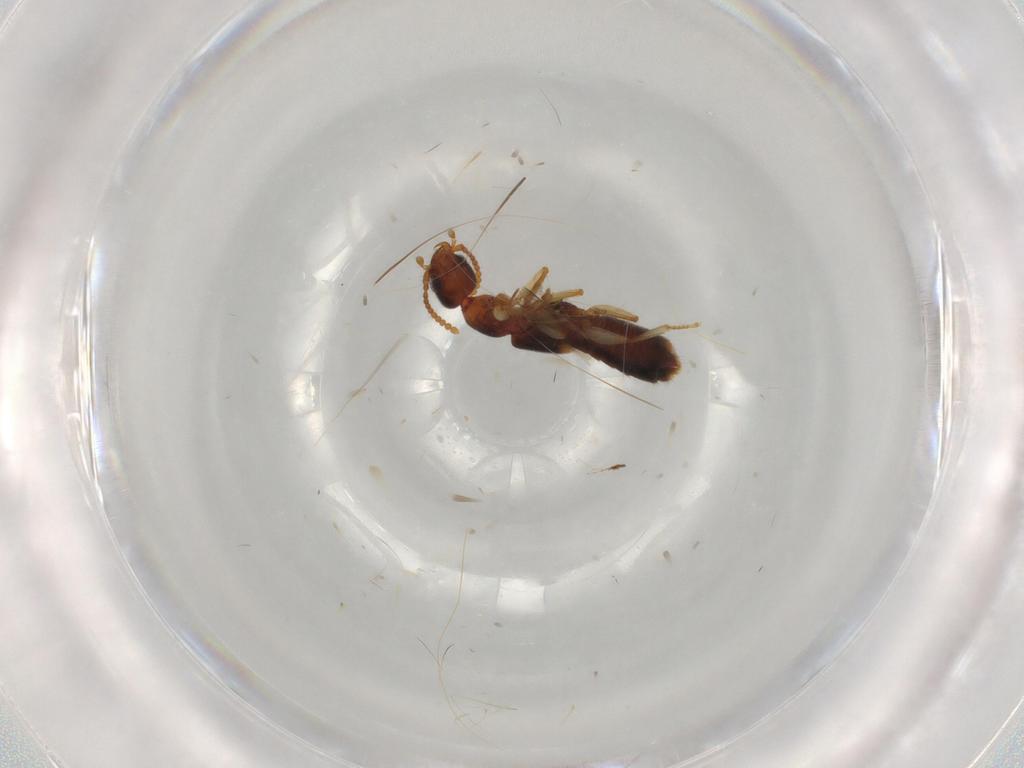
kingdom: Animalia
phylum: Arthropoda
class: Insecta
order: Coleoptera
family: Staphylinidae
